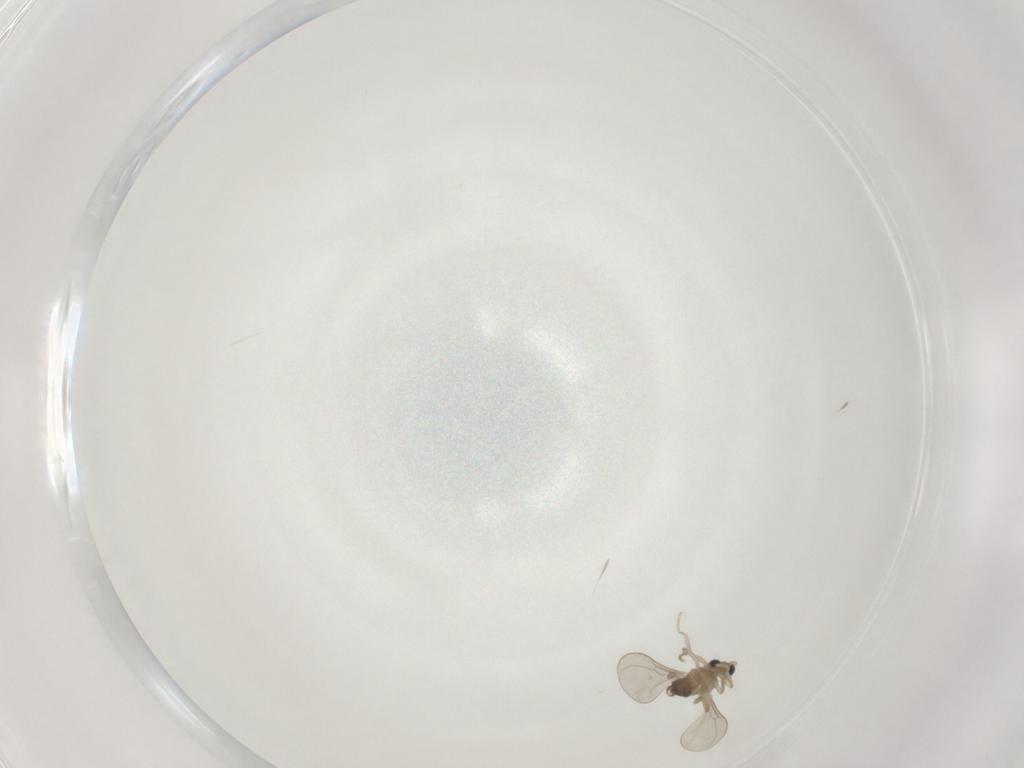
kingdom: Animalia
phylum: Arthropoda
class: Insecta
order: Diptera
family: Cecidomyiidae
